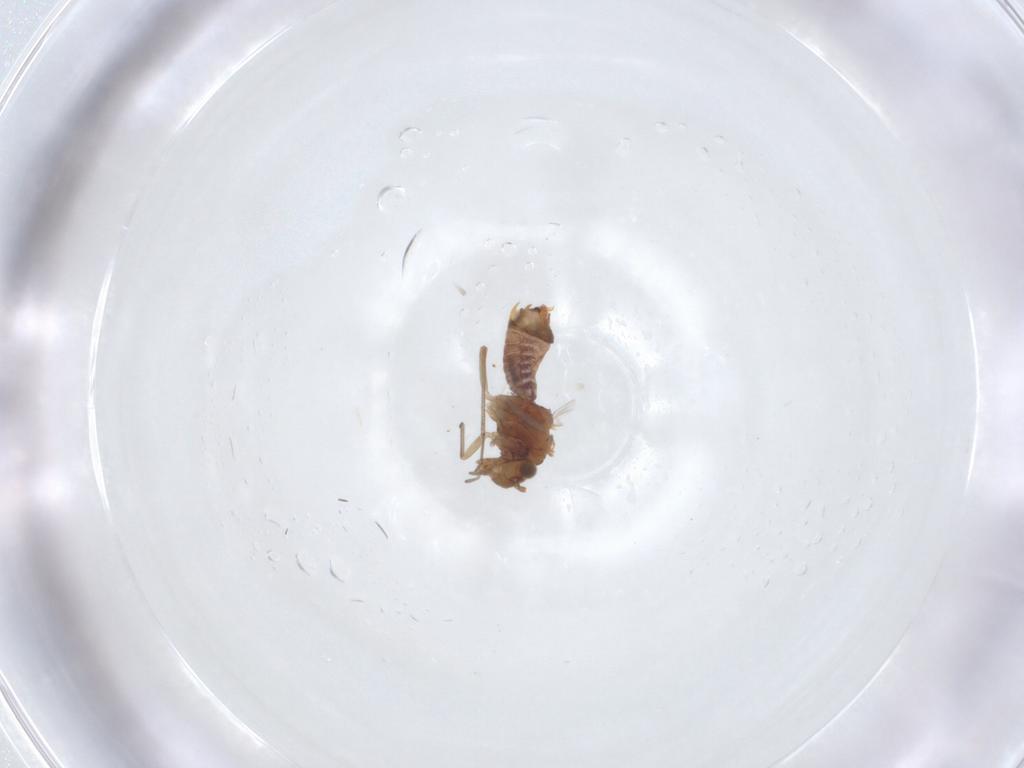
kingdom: Animalia
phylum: Arthropoda
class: Insecta
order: Psocodea
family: Lachesillidae
